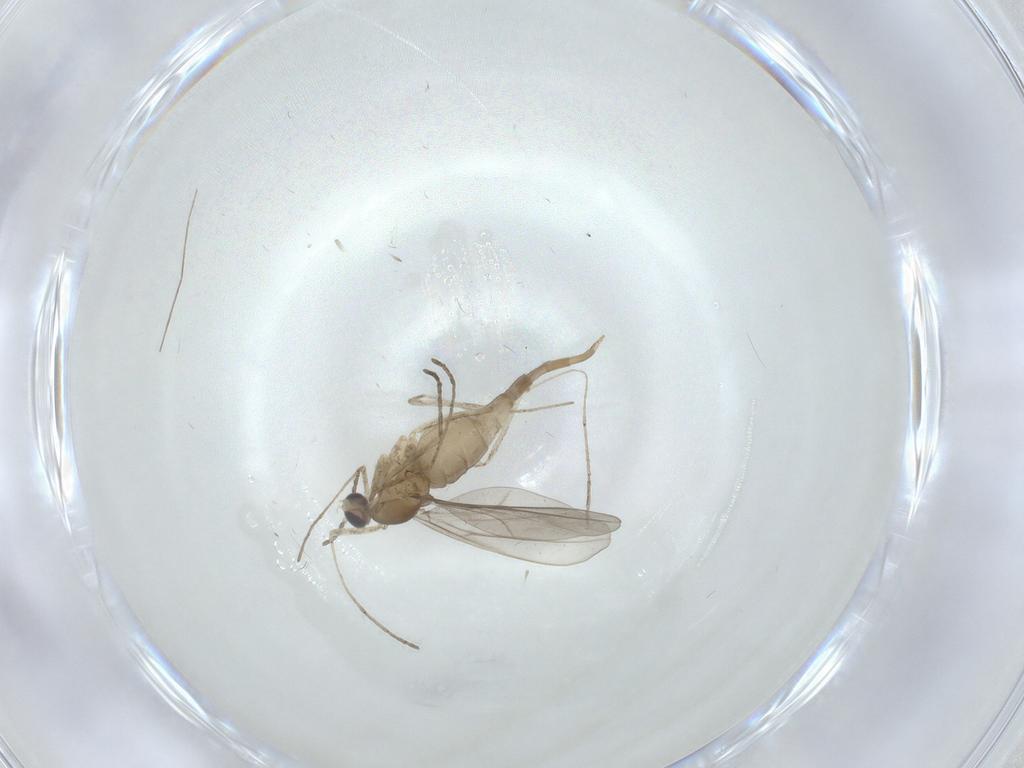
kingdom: Animalia
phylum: Arthropoda
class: Insecta
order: Diptera
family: Cecidomyiidae
